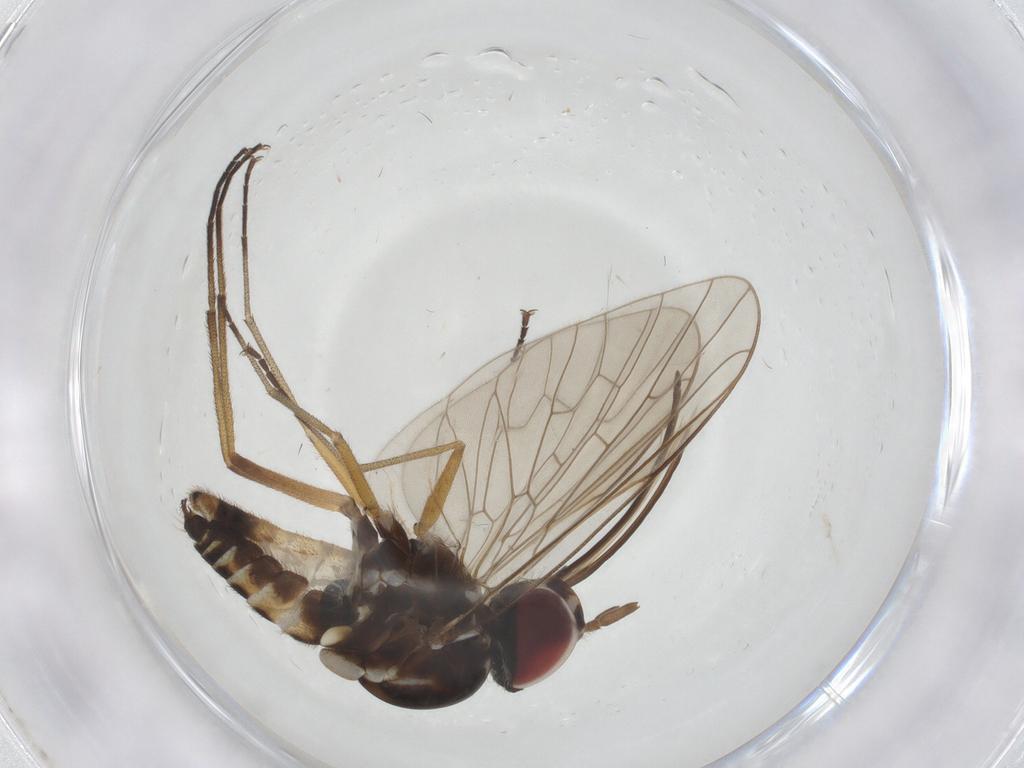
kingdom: Animalia
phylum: Arthropoda
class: Insecta
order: Diptera
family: Bombyliidae
